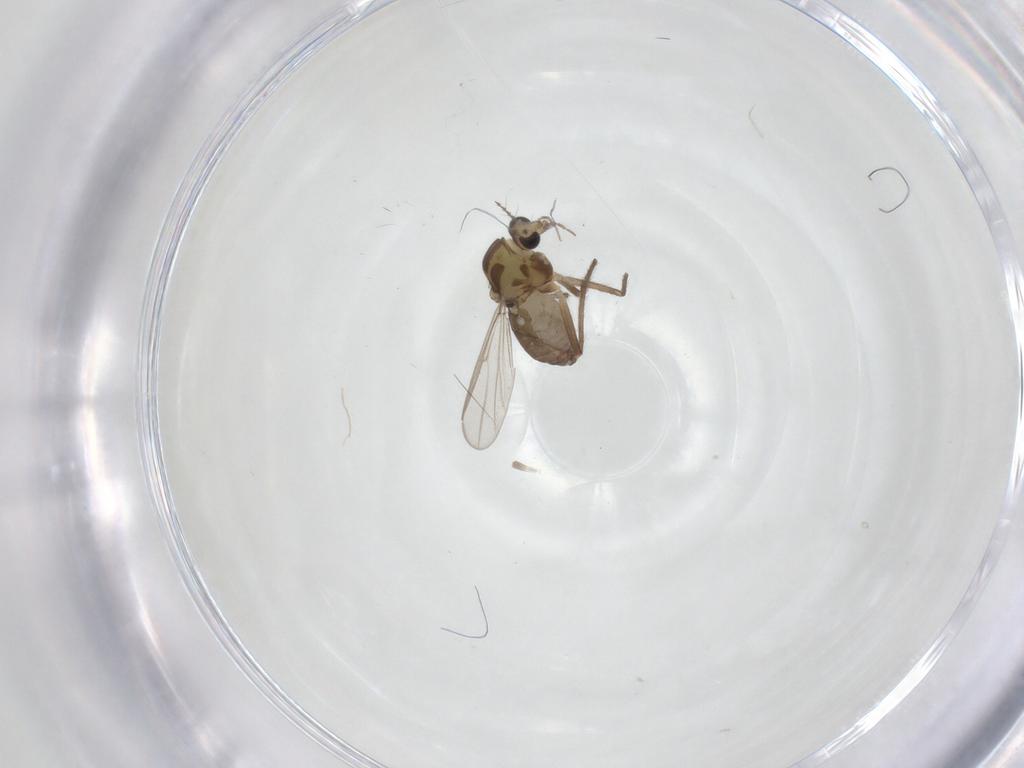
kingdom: Animalia
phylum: Arthropoda
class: Insecta
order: Diptera
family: Chironomidae
